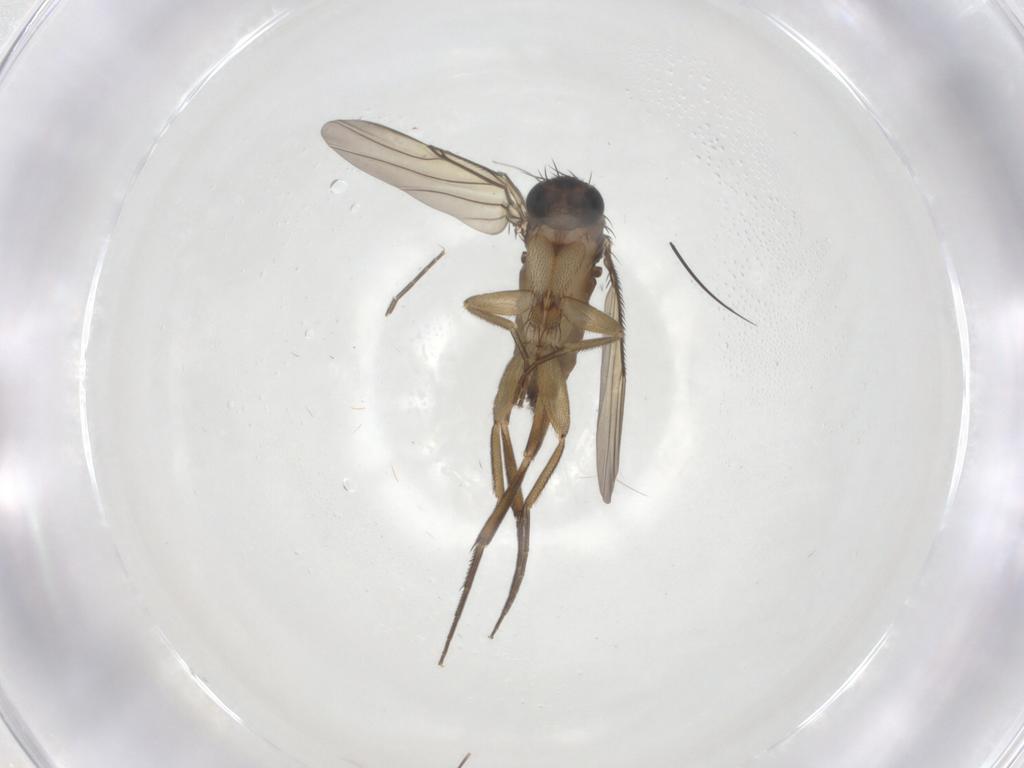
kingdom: Animalia
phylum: Arthropoda
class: Insecta
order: Diptera
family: Phoridae
